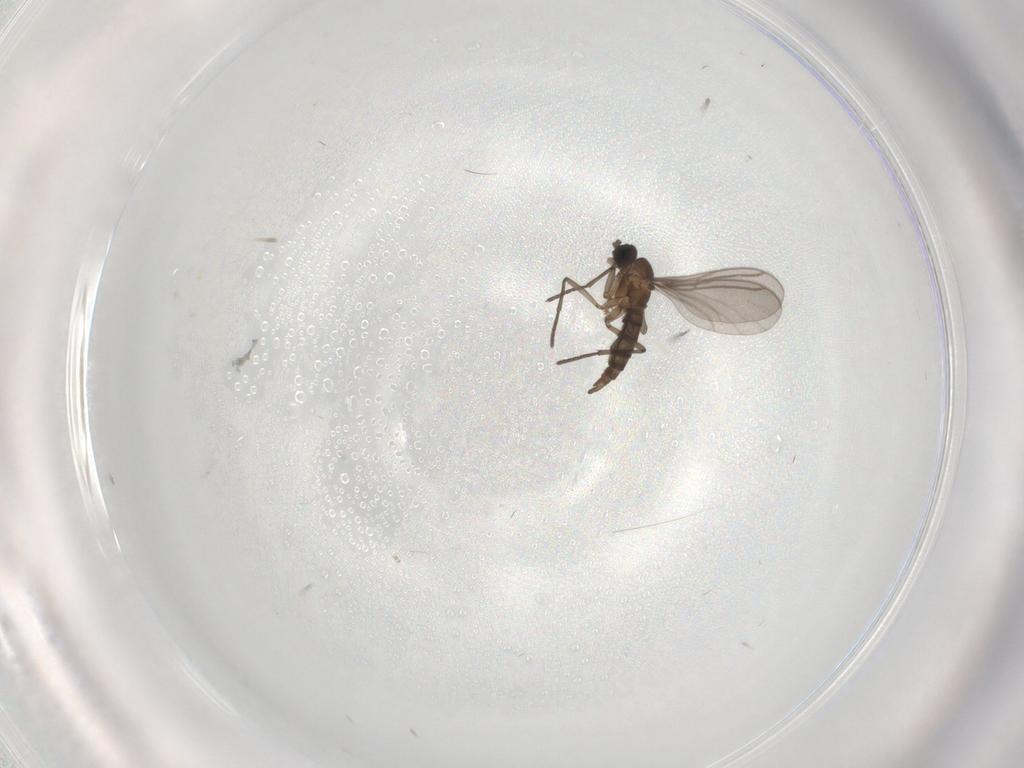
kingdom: Animalia
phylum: Arthropoda
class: Insecta
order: Diptera
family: Sciaridae
